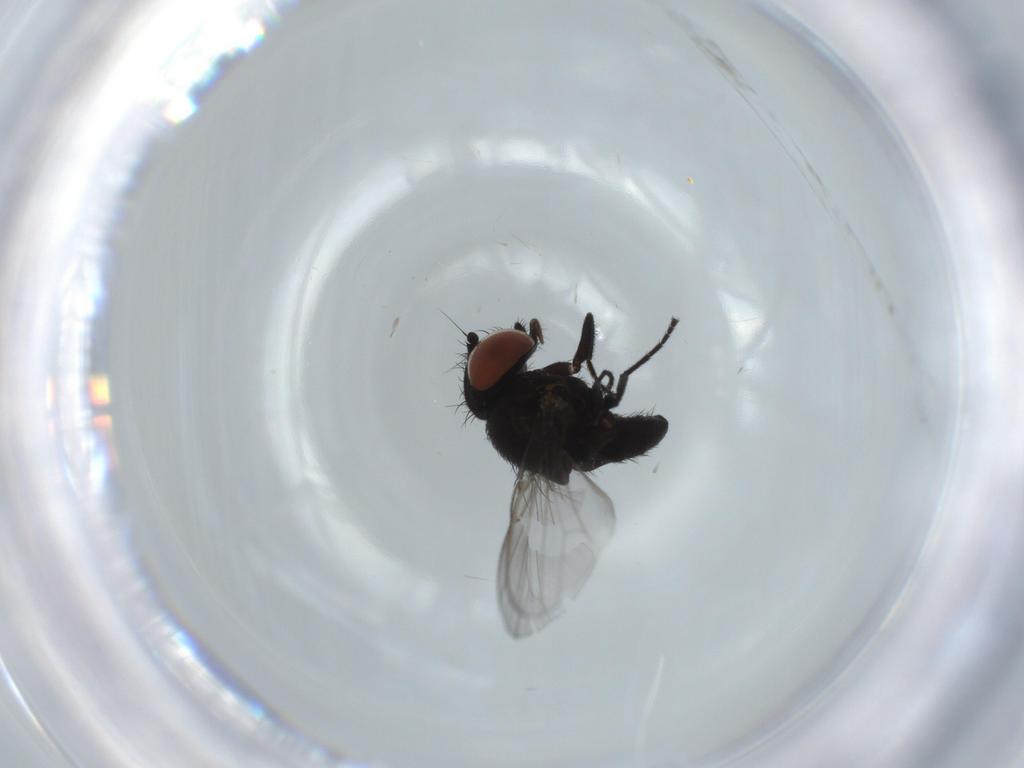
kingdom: Animalia
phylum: Arthropoda
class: Insecta
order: Diptera
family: Milichiidae
